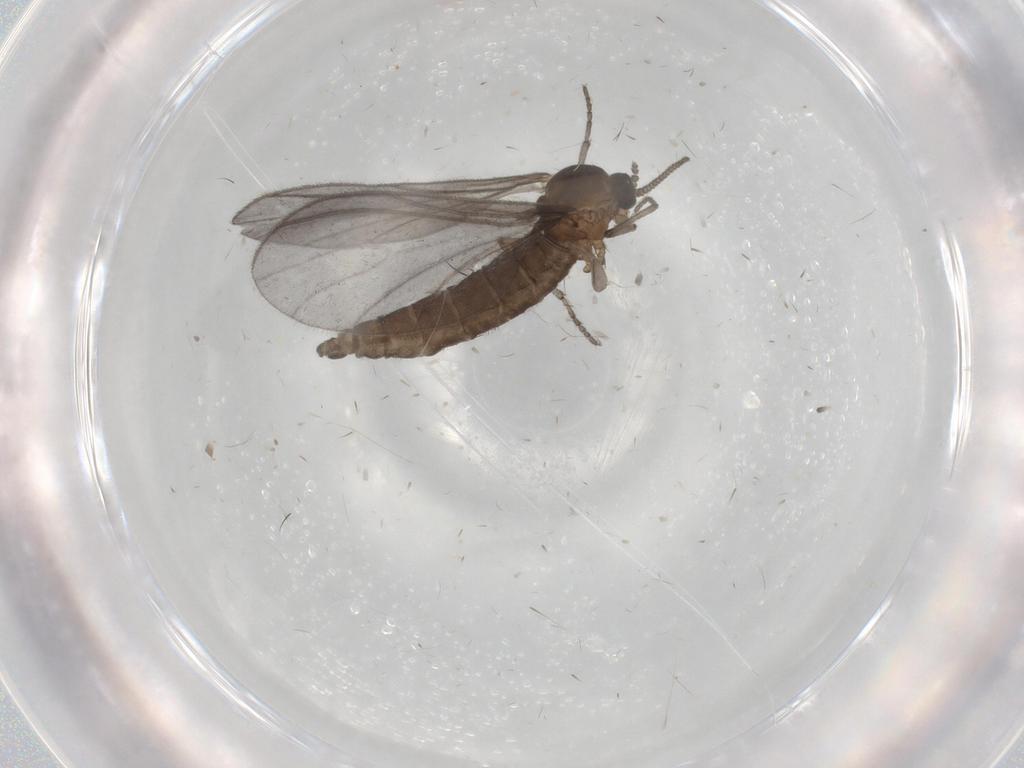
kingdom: Animalia
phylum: Arthropoda
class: Insecta
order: Diptera
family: Sciaridae
